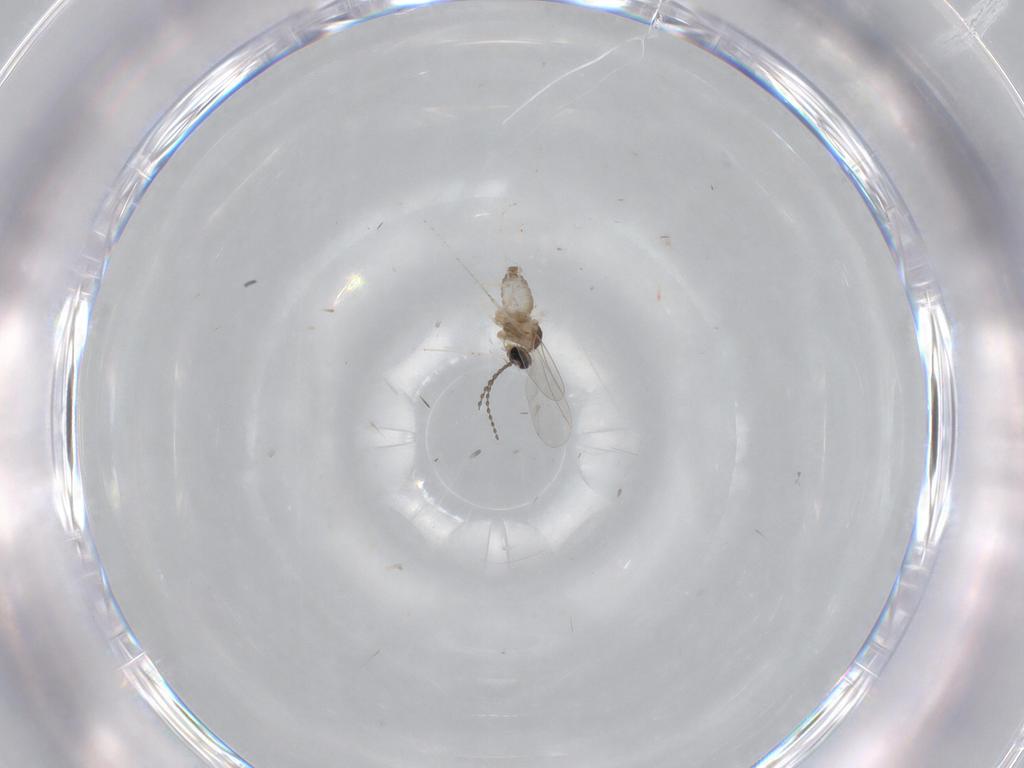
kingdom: Animalia
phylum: Arthropoda
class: Insecta
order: Diptera
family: Cecidomyiidae
